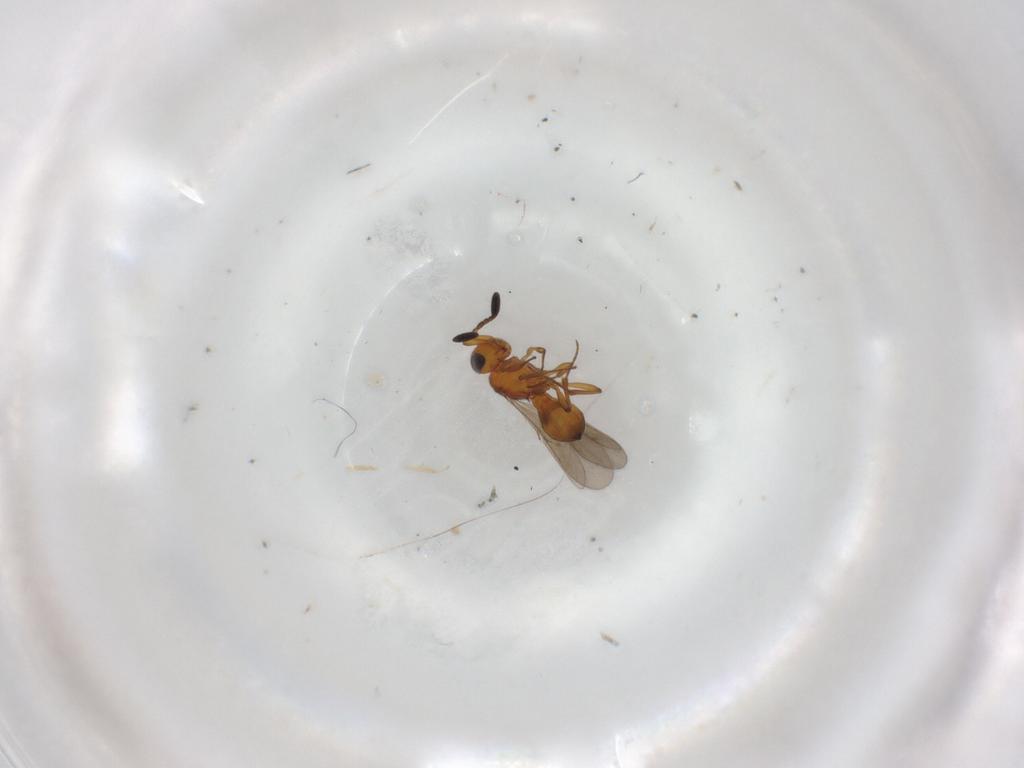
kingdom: Animalia
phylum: Arthropoda
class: Insecta
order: Hymenoptera
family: Scelionidae
